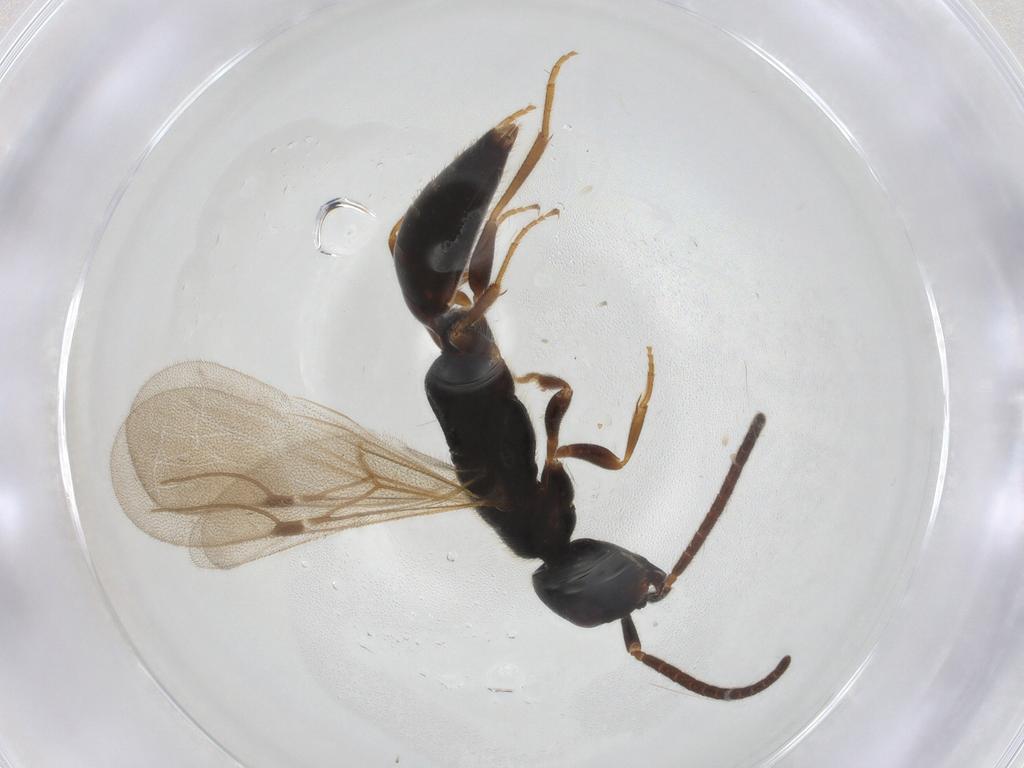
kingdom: Animalia
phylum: Arthropoda
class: Insecta
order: Hymenoptera
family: Bethylidae
